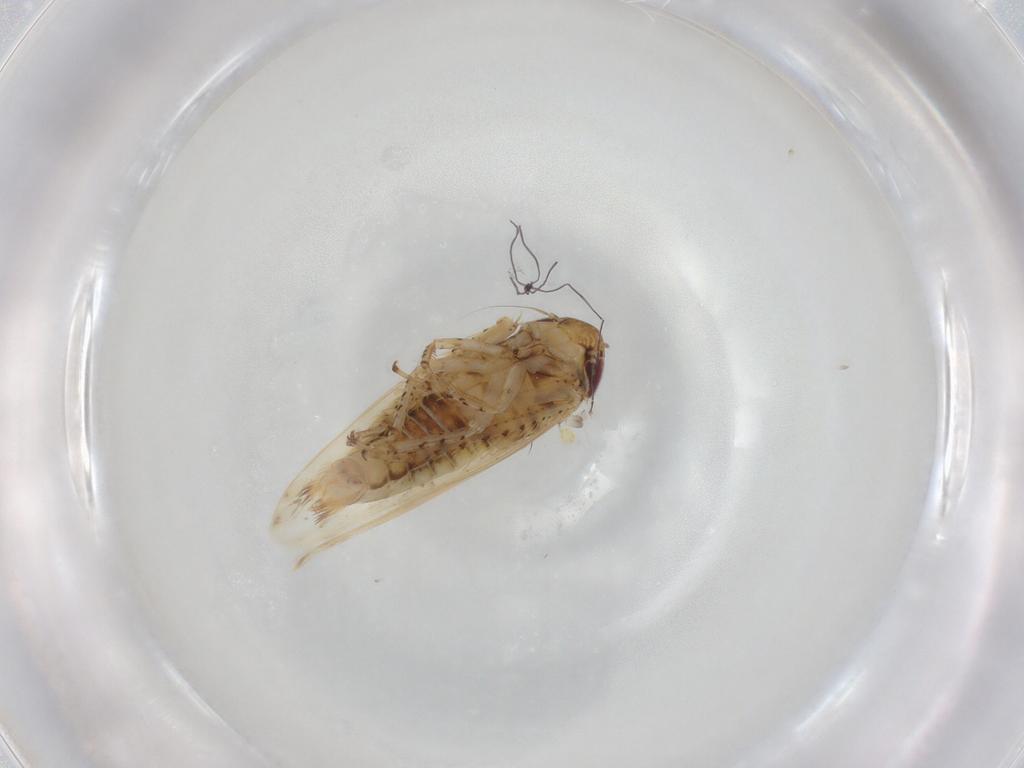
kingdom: Animalia
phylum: Arthropoda
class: Insecta
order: Hemiptera
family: Cicadellidae
